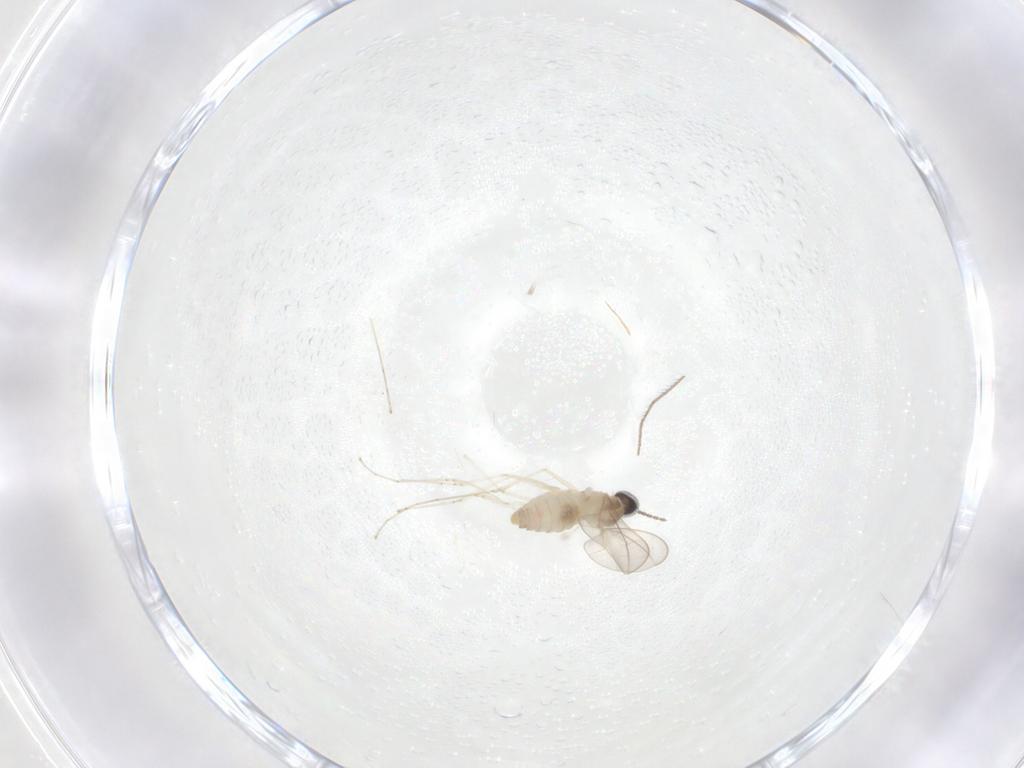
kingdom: Animalia
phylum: Arthropoda
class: Insecta
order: Diptera
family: Cecidomyiidae
